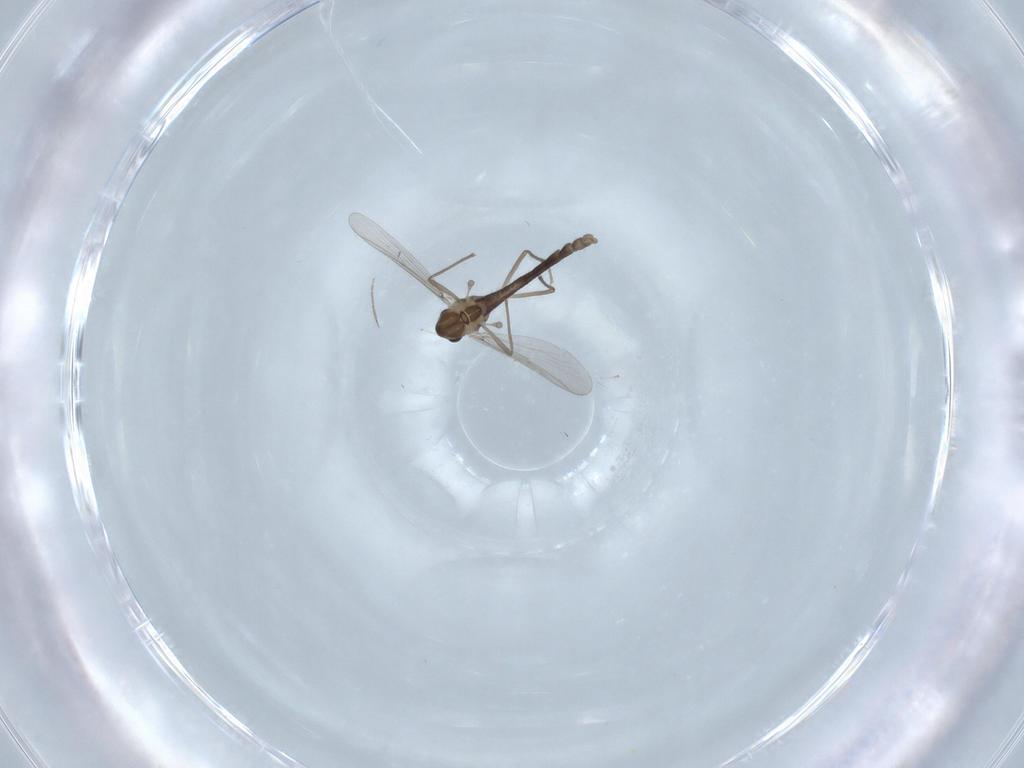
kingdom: Animalia
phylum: Arthropoda
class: Insecta
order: Diptera
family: Chironomidae
